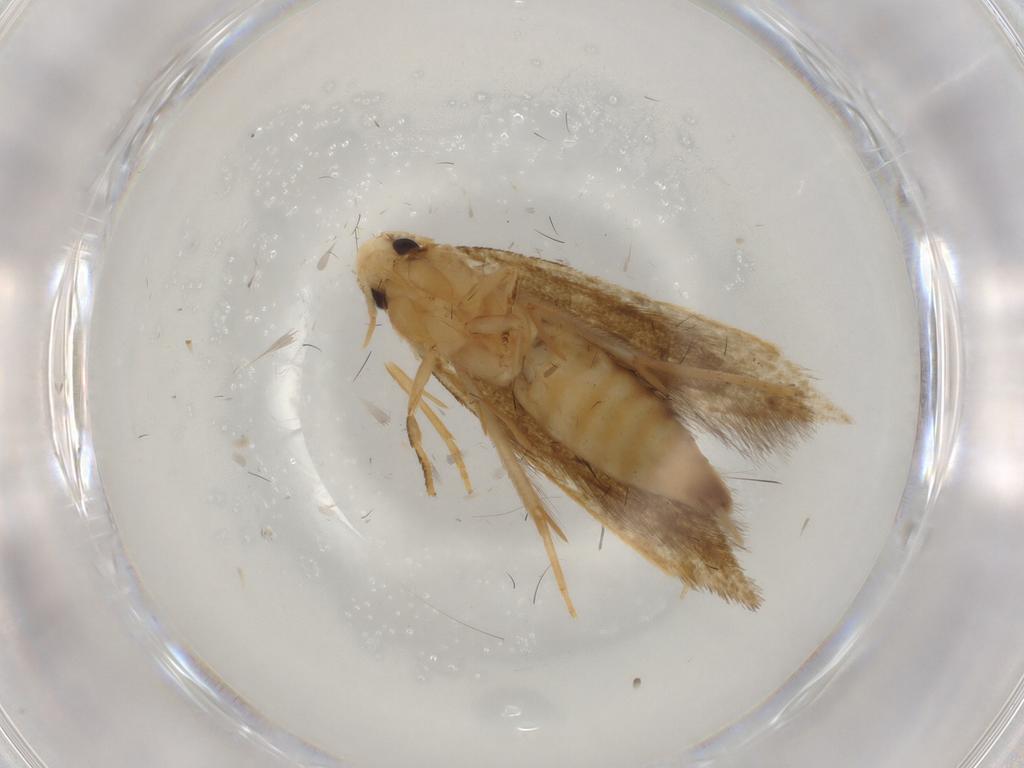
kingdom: Animalia
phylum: Arthropoda
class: Insecta
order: Lepidoptera
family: Tineidae
